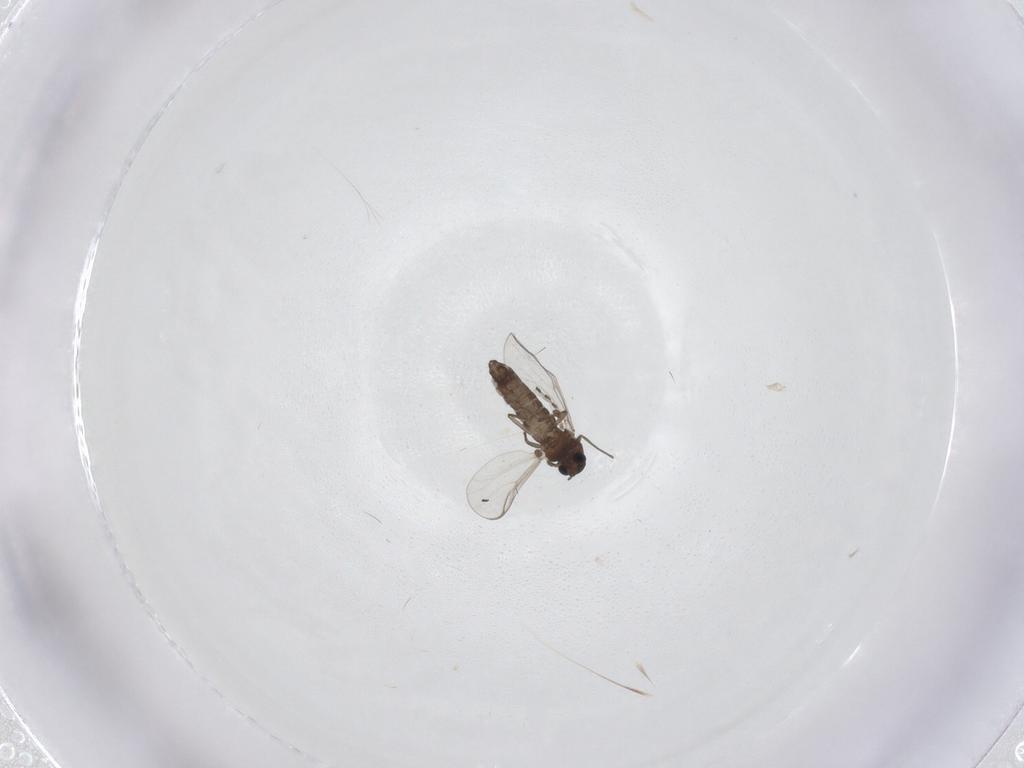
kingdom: Animalia
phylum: Arthropoda
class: Insecta
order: Diptera
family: Chironomidae
